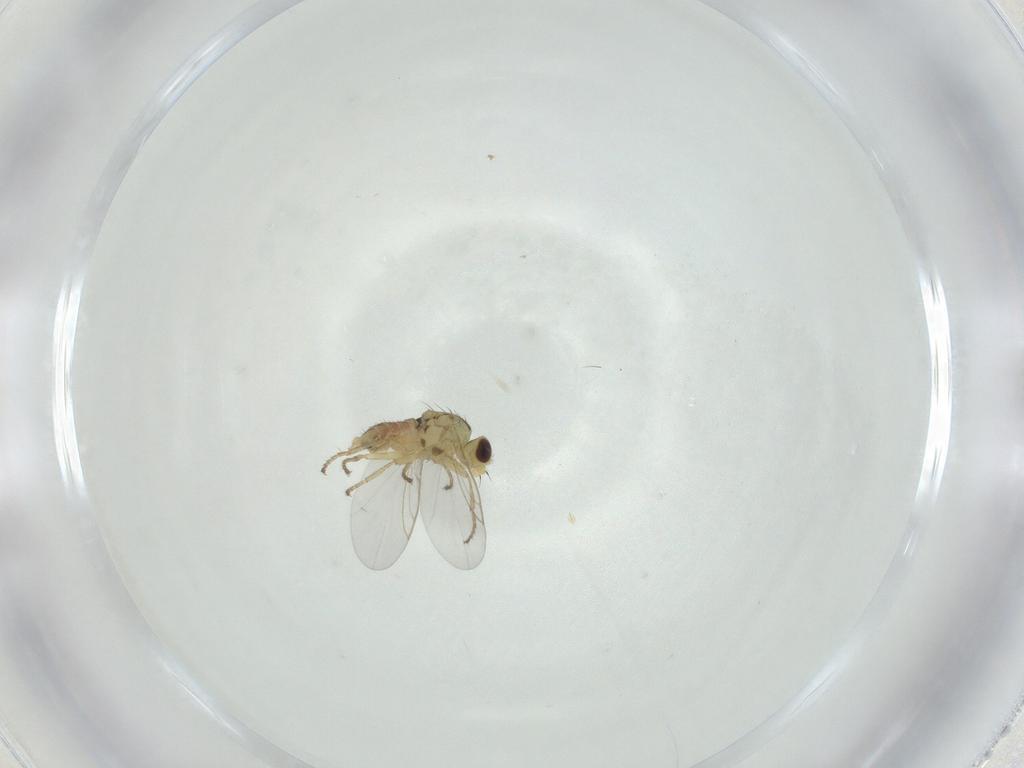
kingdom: Animalia
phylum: Arthropoda
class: Insecta
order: Diptera
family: Agromyzidae
